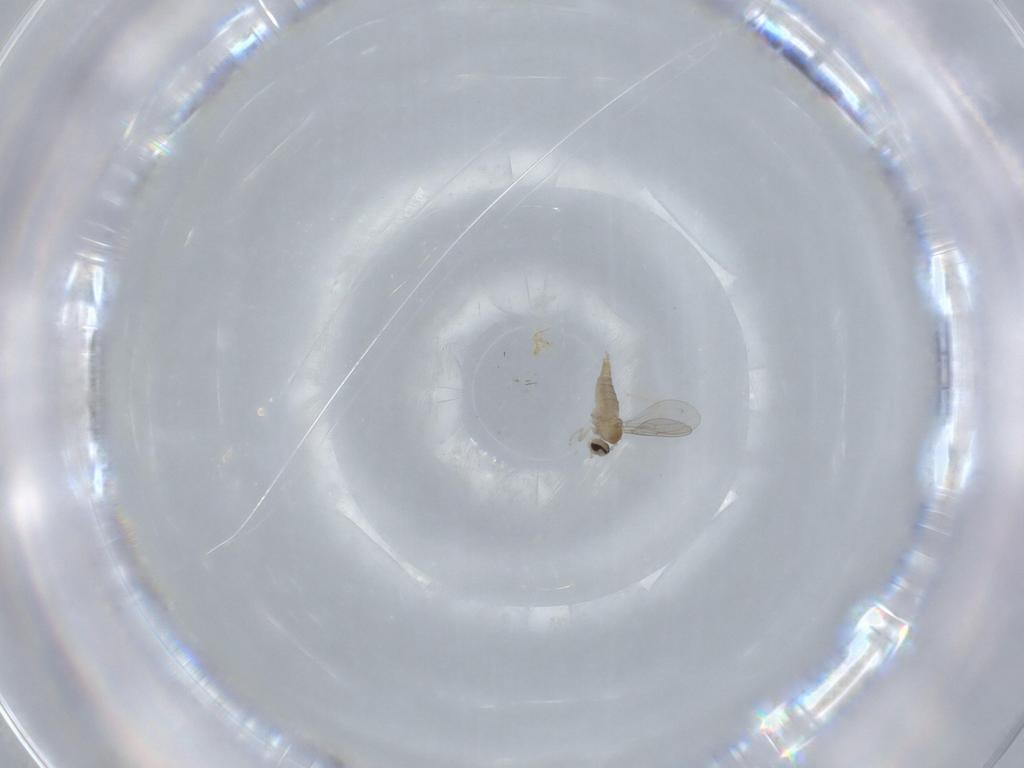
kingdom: Animalia
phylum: Arthropoda
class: Insecta
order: Diptera
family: Cecidomyiidae
